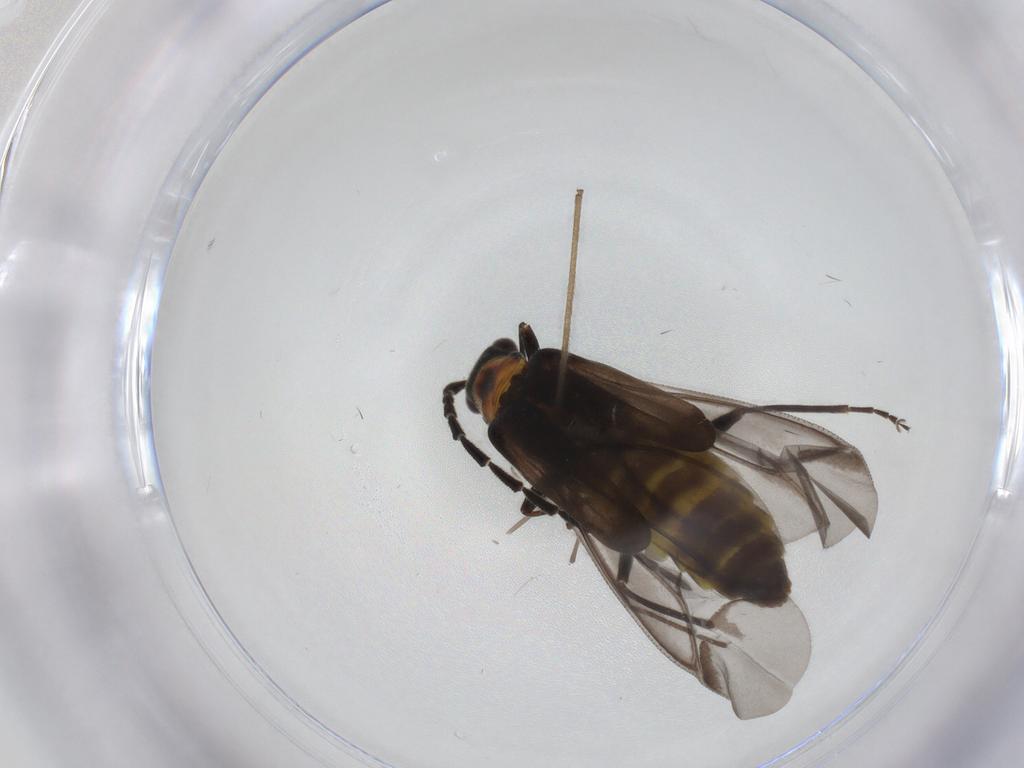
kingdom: Animalia
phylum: Arthropoda
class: Insecta
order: Coleoptera
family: Cantharidae
